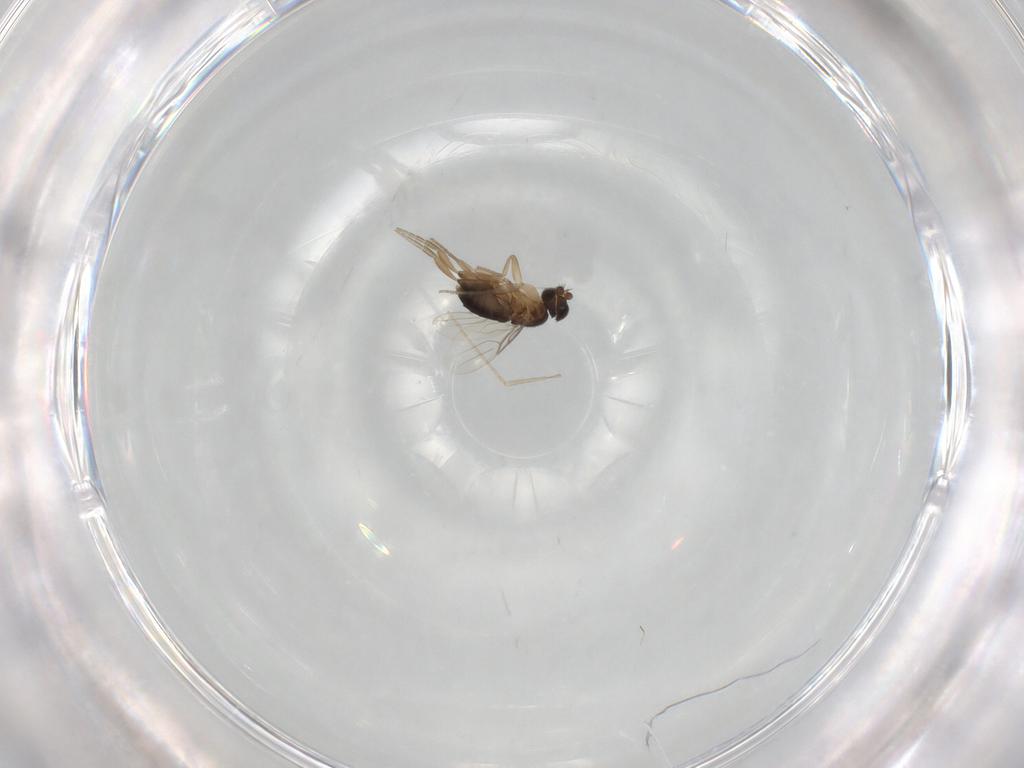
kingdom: Animalia
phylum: Arthropoda
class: Insecta
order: Diptera
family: Phoridae
